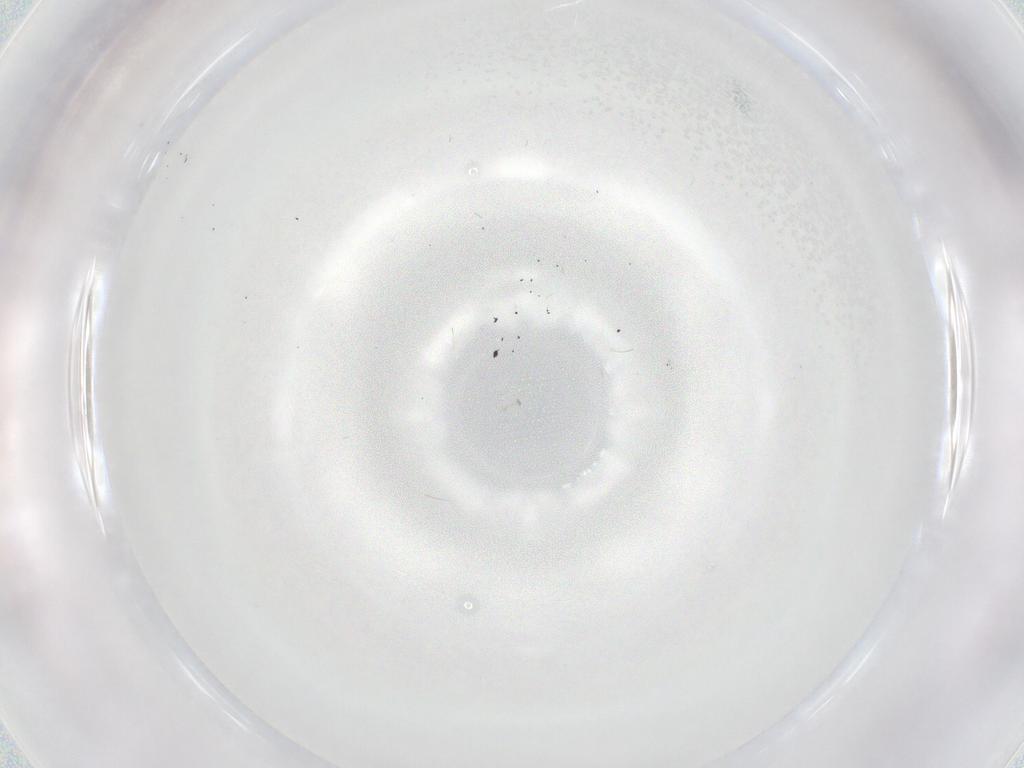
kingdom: Animalia
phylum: Arthropoda
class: Insecta
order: Diptera
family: Cecidomyiidae
